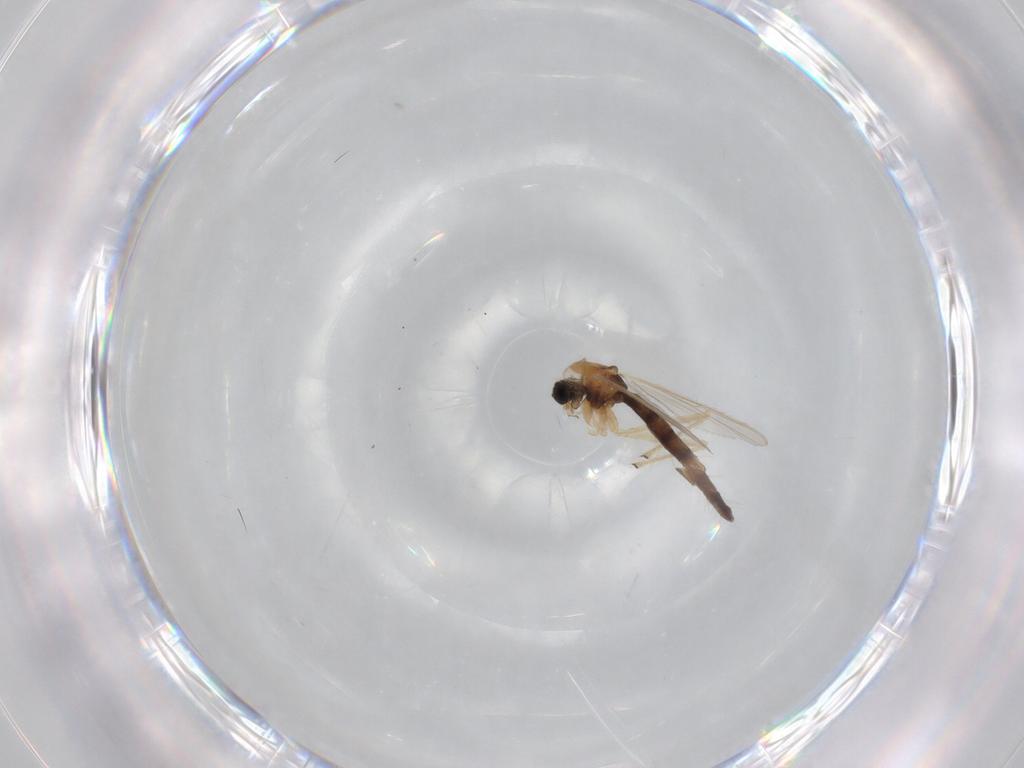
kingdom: Animalia
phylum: Arthropoda
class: Insecta
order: Diptera
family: Chironomidae
